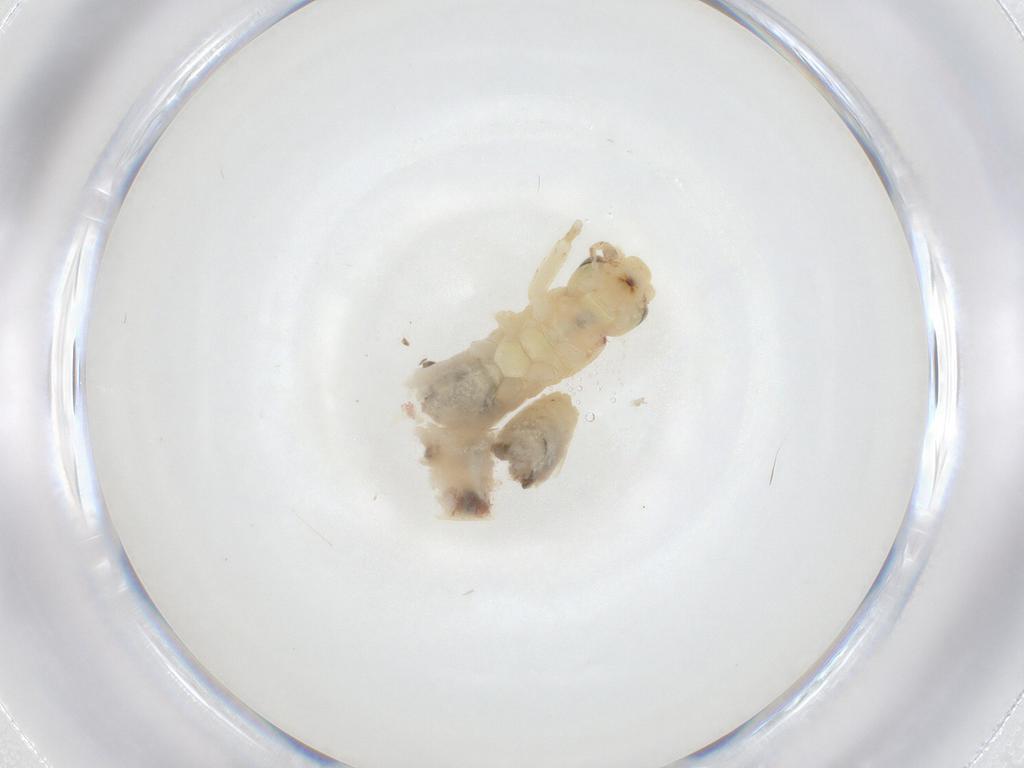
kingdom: Animalia
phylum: Arthropoda
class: Insecta
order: Orthoptera
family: Gryllidae
